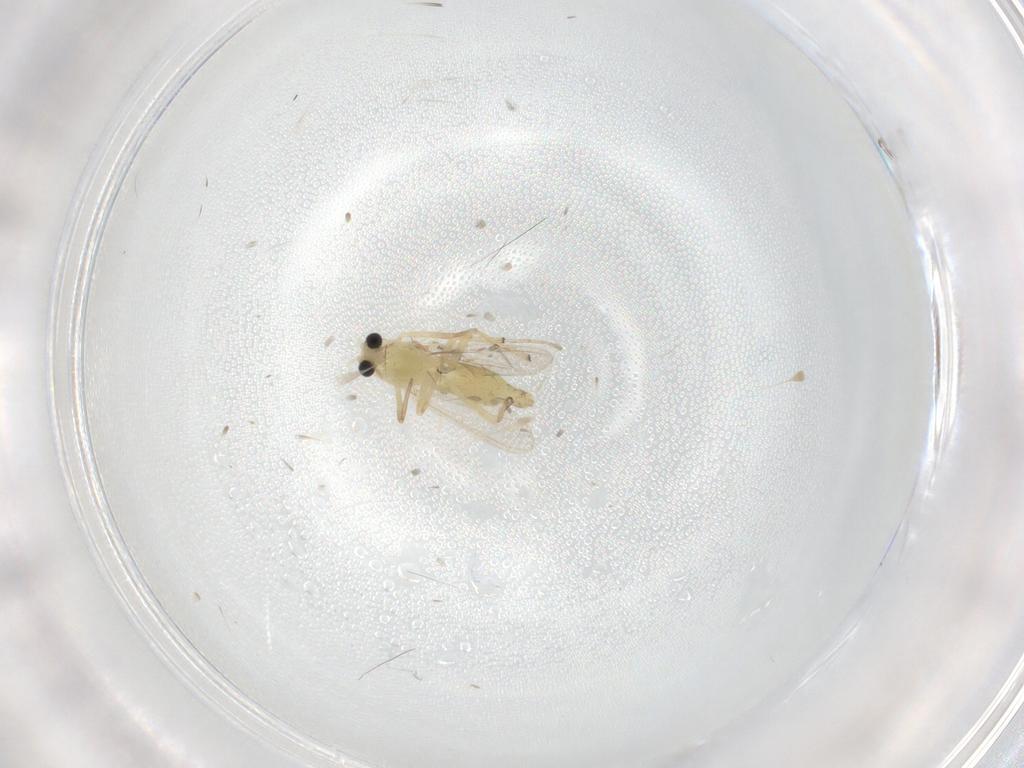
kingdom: Animalia
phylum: Arthropoda
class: Insecta
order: Diptera
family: Chironomidae
